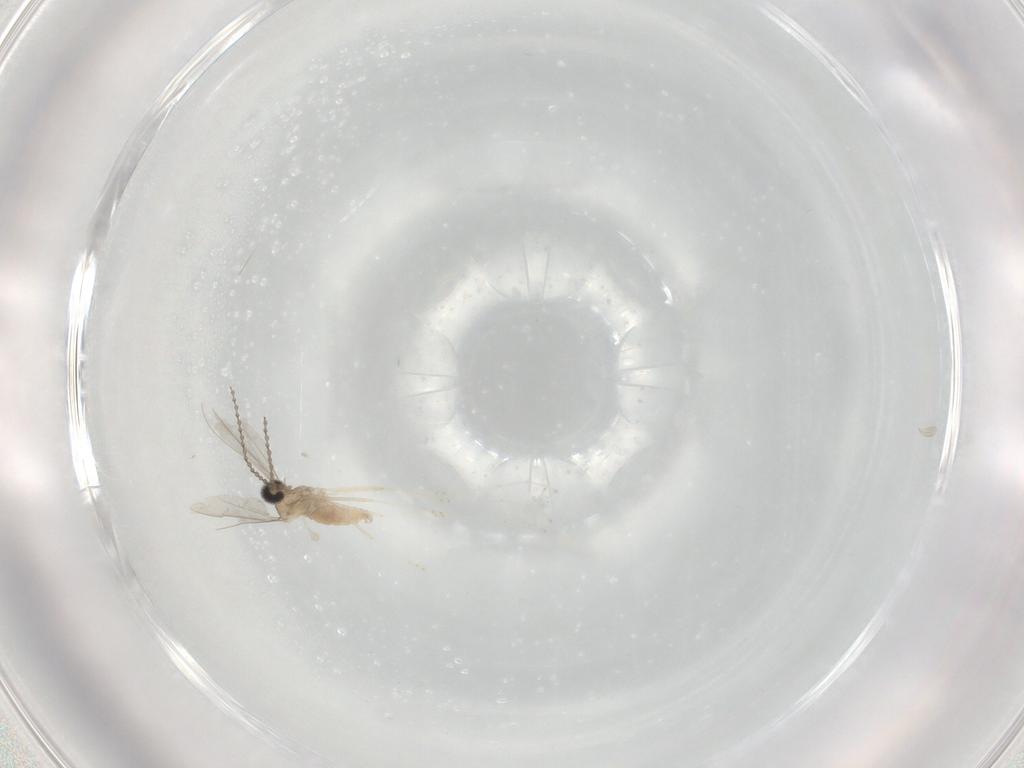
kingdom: Animalia
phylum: Arthropoda
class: Insecta
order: Diptera
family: Cecidomyiidae
